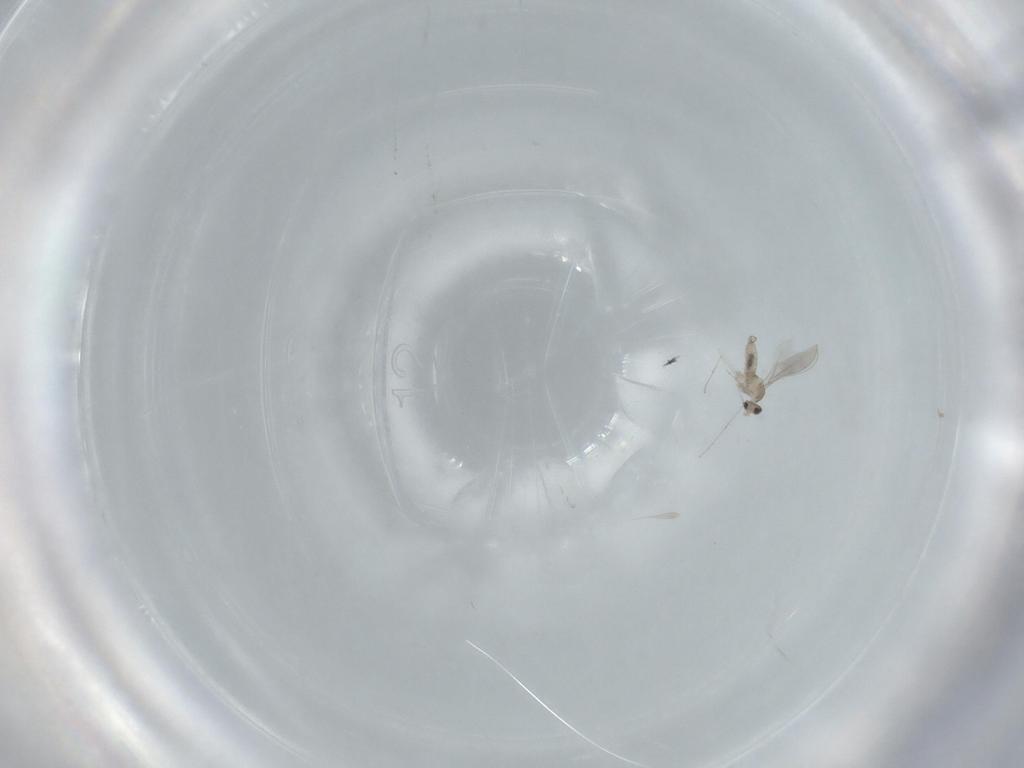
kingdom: Animalia
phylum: Arthropoda
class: Insecta
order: Diptera
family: Cecidomyiidae
